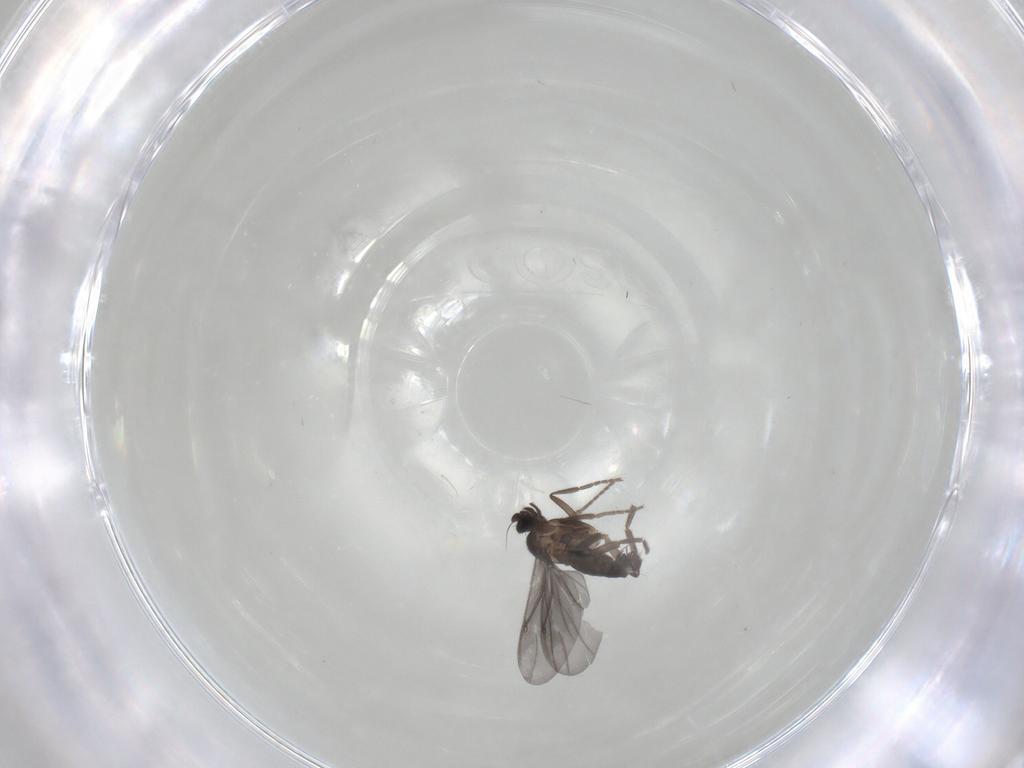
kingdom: Animalia
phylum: Arthropoda
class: Insecta
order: Diptera
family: Phoridae
